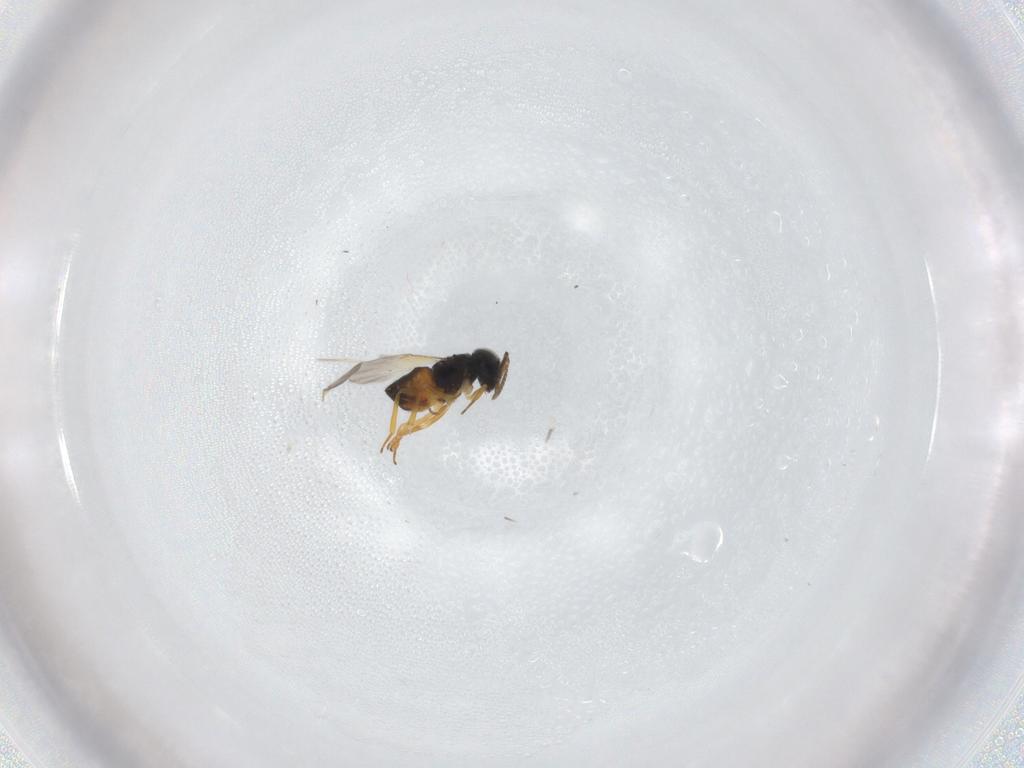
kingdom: Animalia
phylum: Arthropoda
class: Insecta
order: Hymenoptera
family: Encyrtidae
